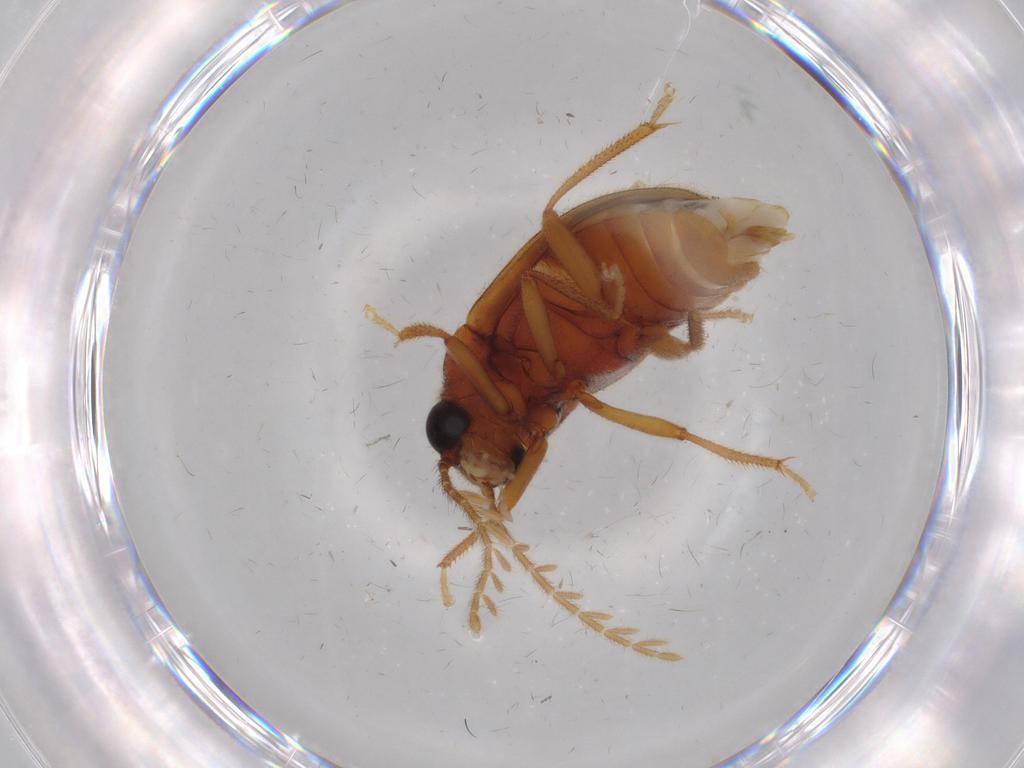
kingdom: Animalia
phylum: Arthropoda
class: Insecta
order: Coleoptera
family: Ptilodactylidae
